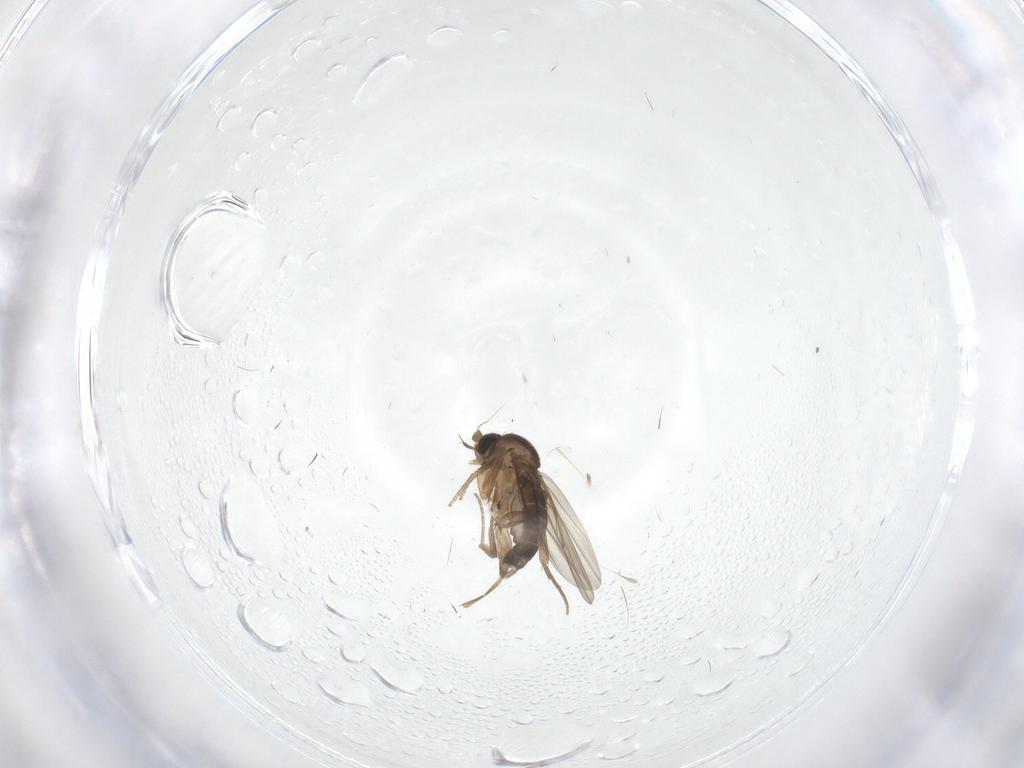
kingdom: Animalia
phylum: Arthropoda
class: Insecta
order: Diptera
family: Phoridae
